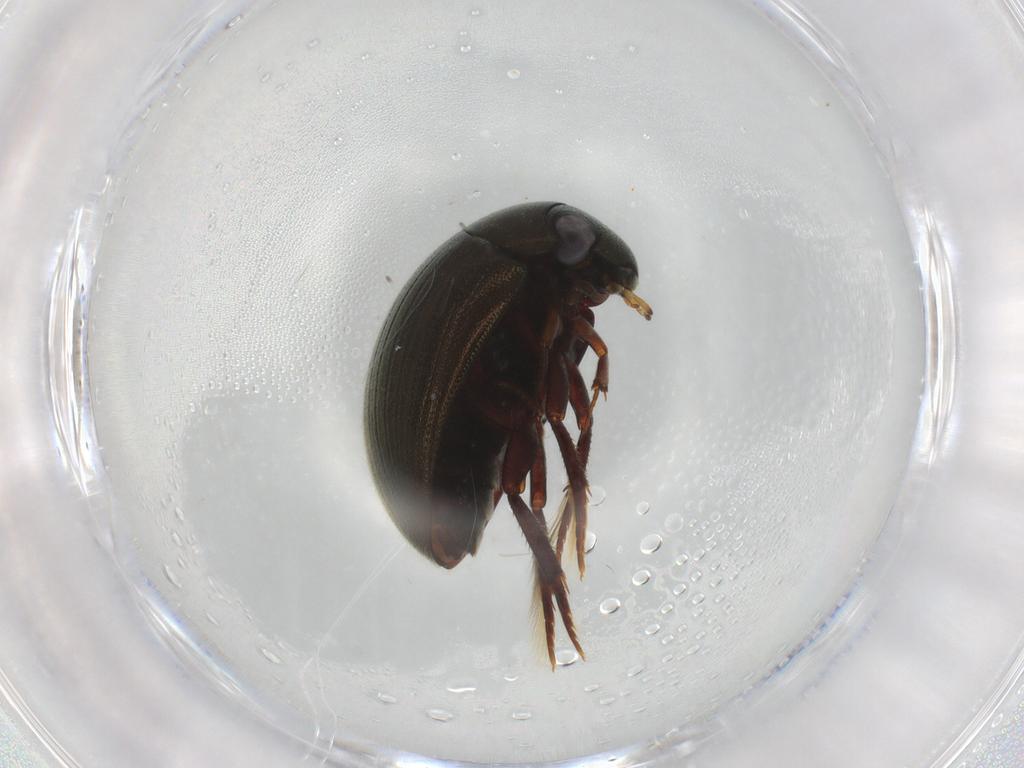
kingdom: Animalia
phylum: Arthropoda
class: Insecta
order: Coleoptera
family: Hydrophilidae
